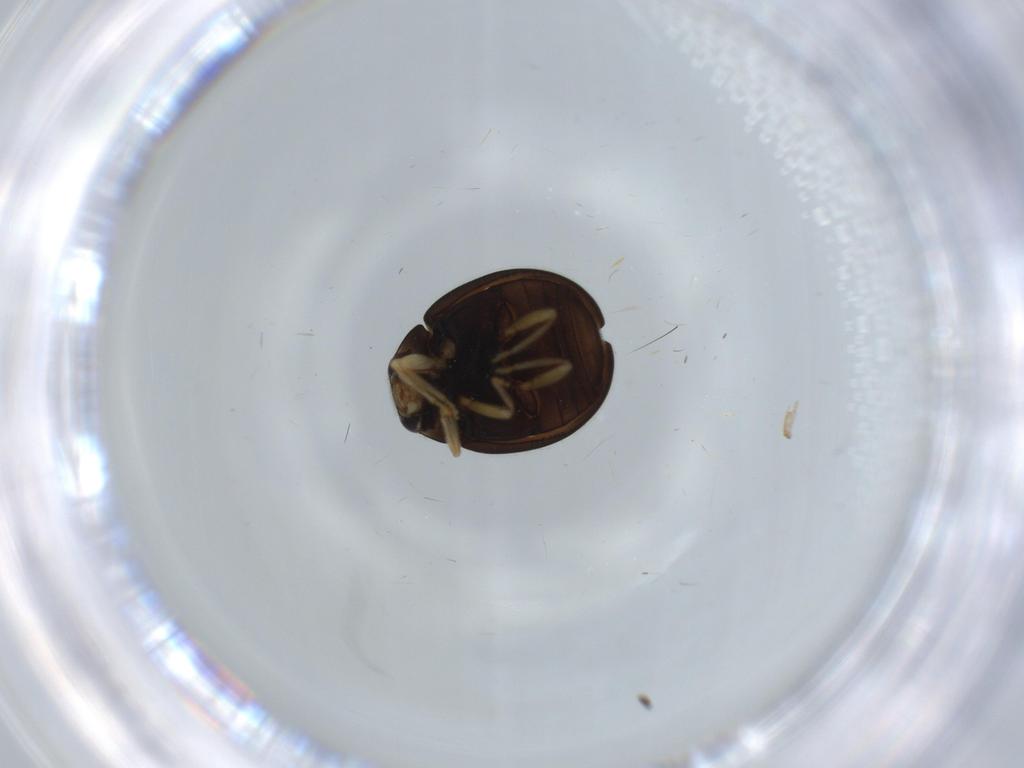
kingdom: Animalia
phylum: Arthropoda
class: Insecta
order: Coleoptera
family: Coccinellidae
